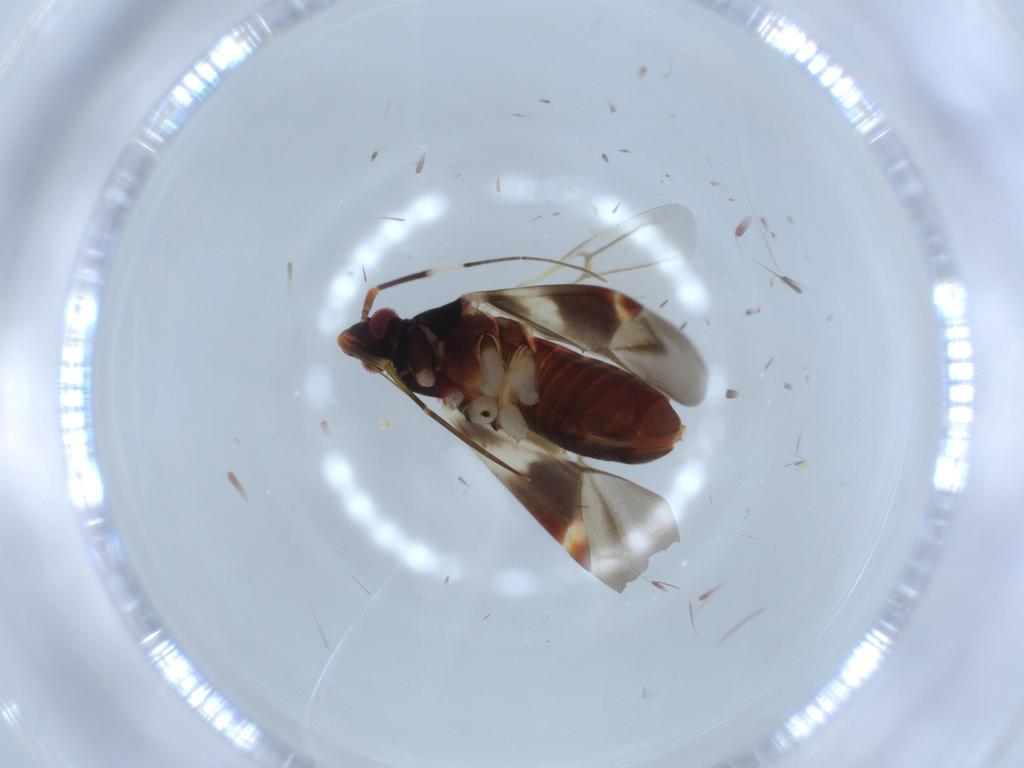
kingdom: Animalia
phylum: Arthropoda
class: Insecta
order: Hemiptera
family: Miridae
